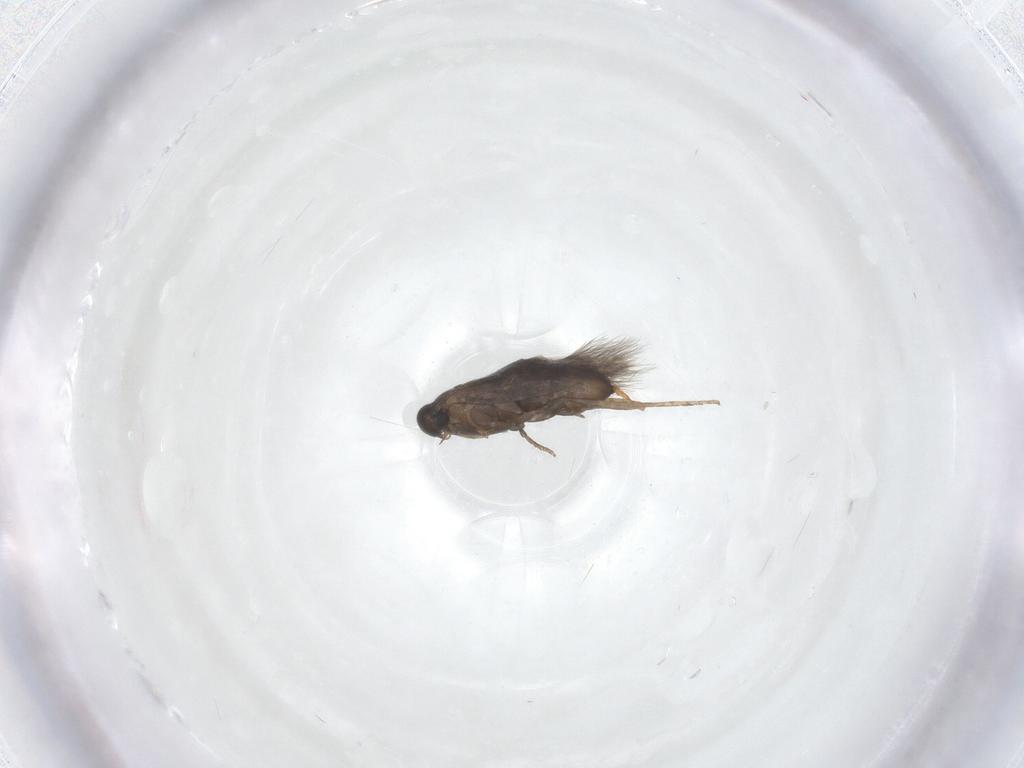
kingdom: Animalia
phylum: Arthropoda
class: Insecta
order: Lepidoptera
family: Heliozelidae
